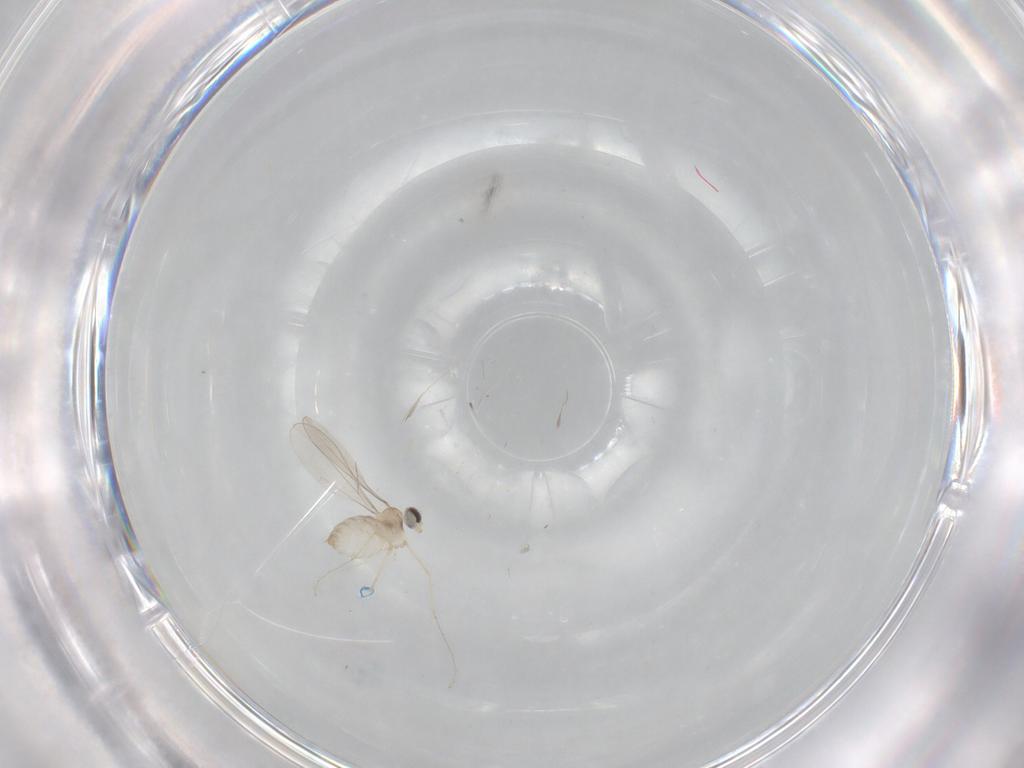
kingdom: Animalia
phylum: Arthropoda
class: Insecta
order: Diptera
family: Cecidomyiidae
